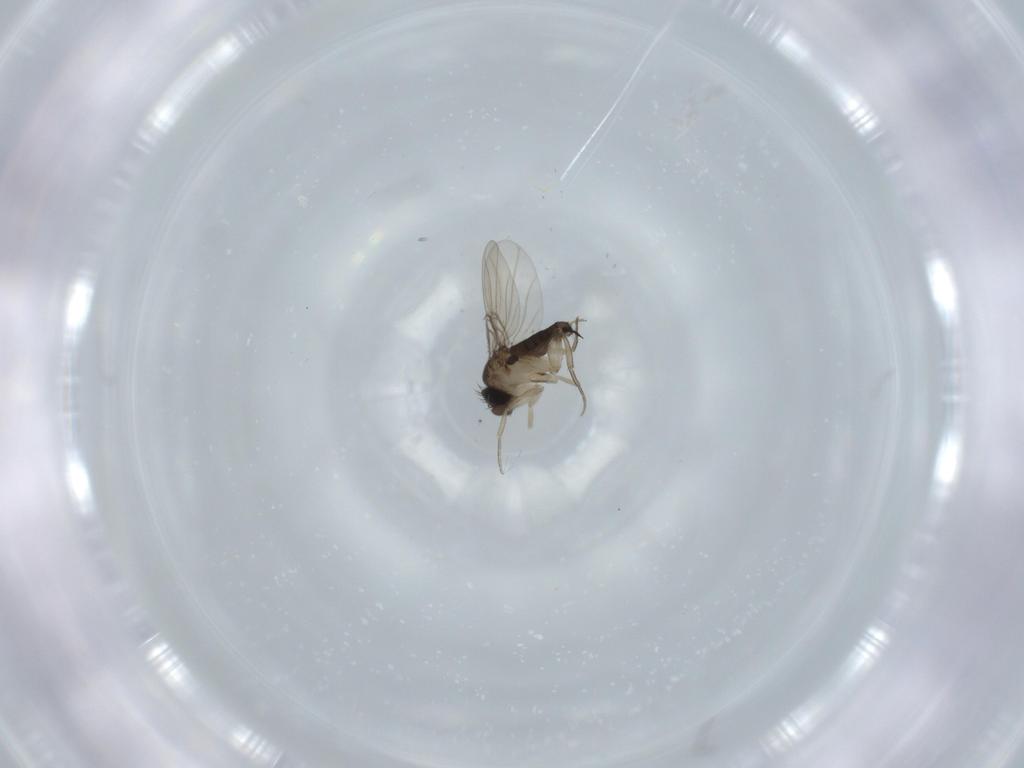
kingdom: Animalia
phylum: Arthropoda
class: Insecta
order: Diptera
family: Phoridae
